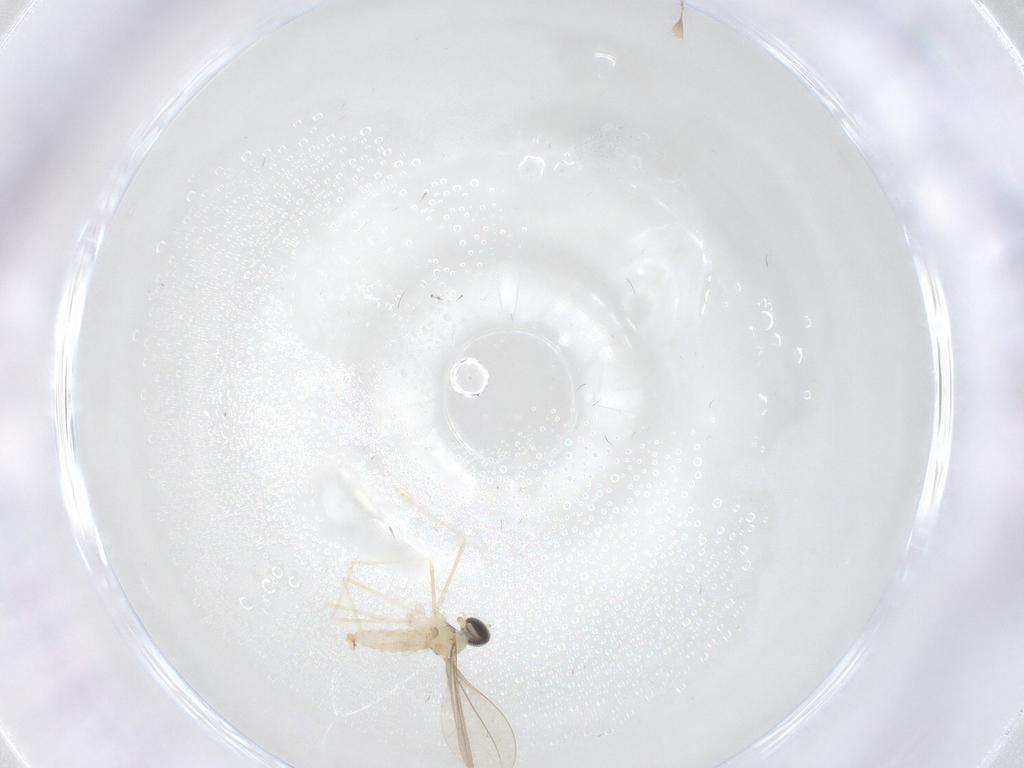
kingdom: Animalia
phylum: Arthropoda
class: Insecta
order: Diptera
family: Cecidomyiidae
